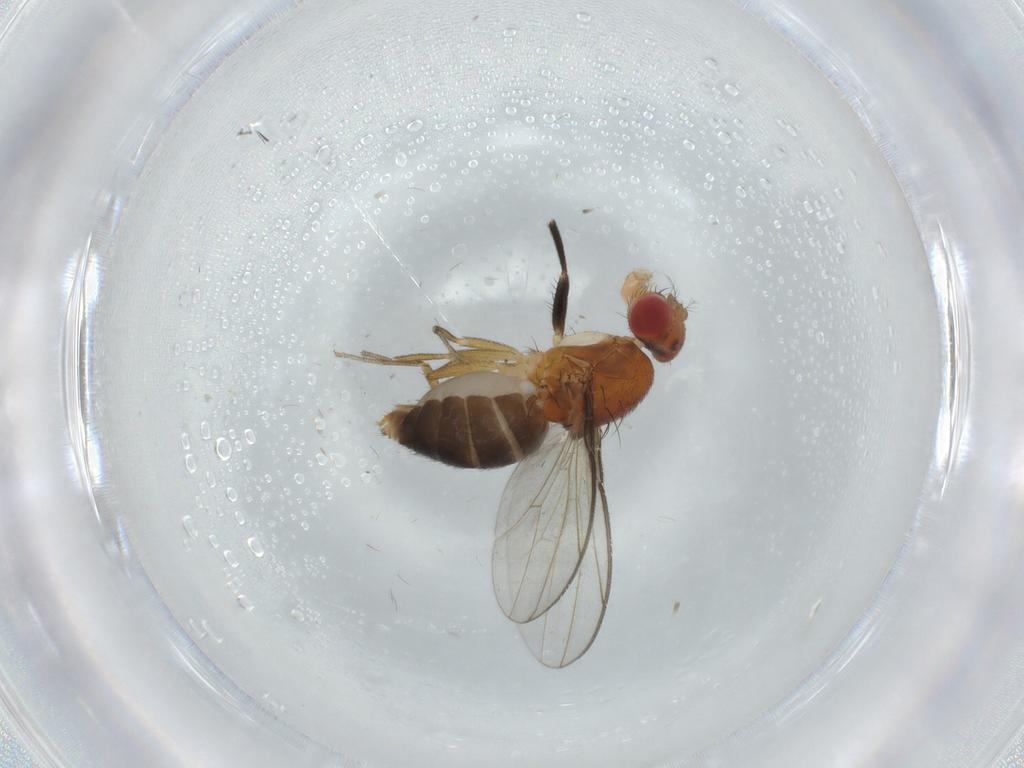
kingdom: Animalia
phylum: Arthropoda
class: Insecta
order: Diptera
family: Drosophilidae
